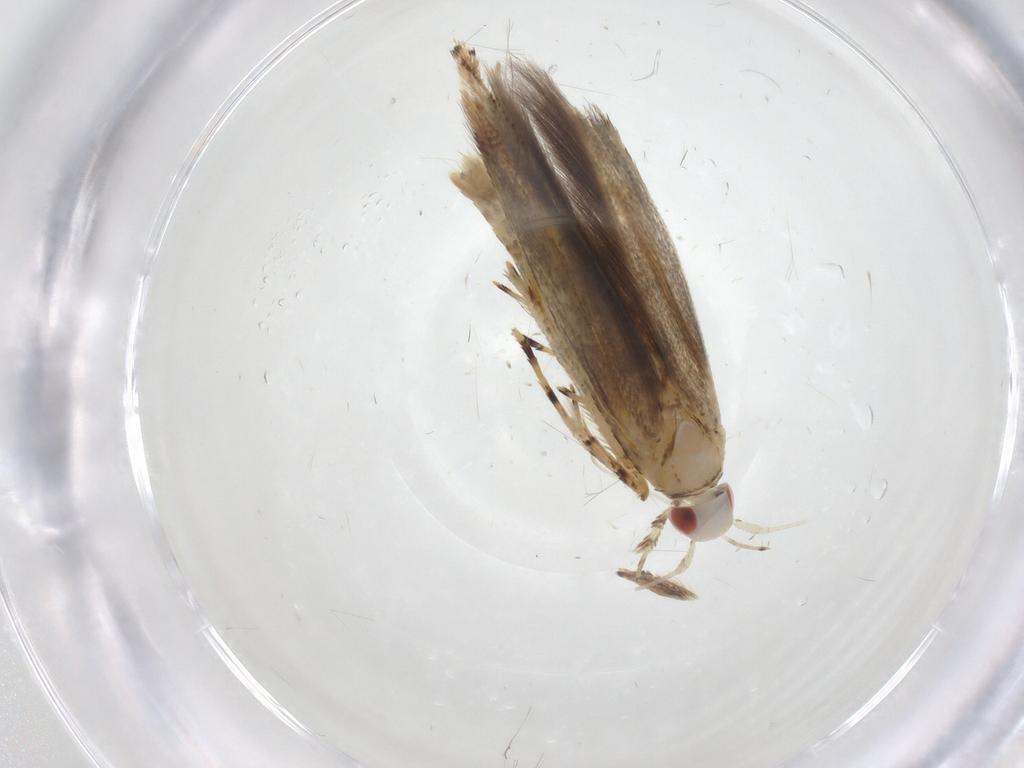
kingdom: Animalia
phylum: Arthropoda
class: Insecta
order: Lepidoptera
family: Cosmopterigidae
